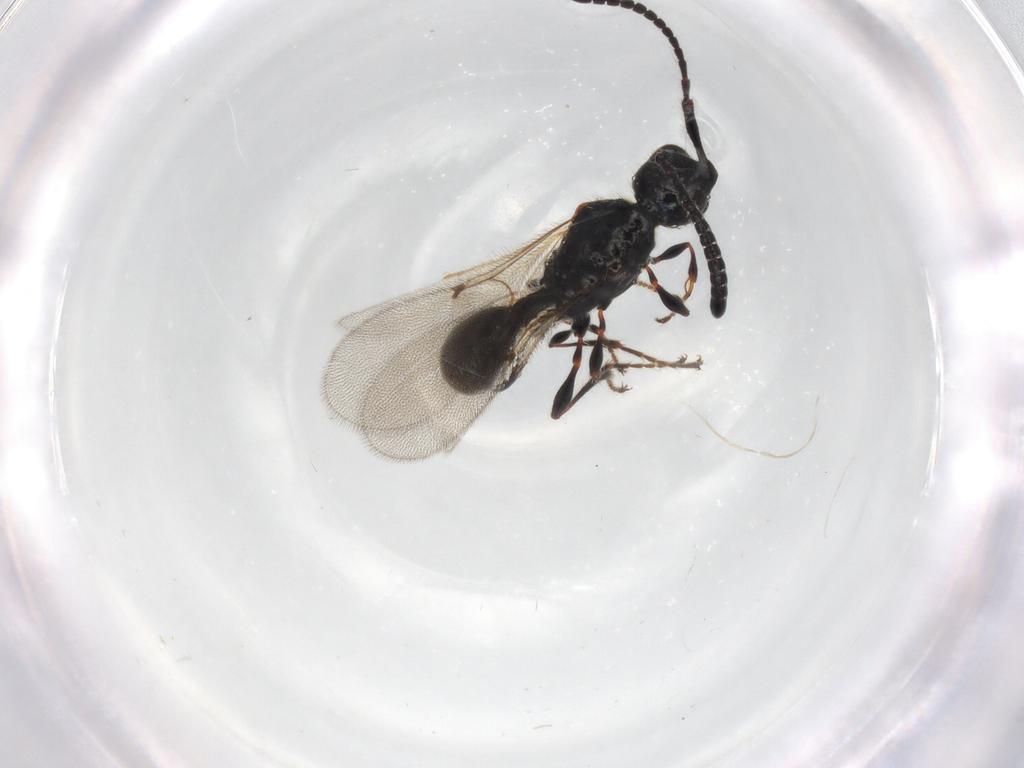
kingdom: Animalia
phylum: Arthropoda
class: Insecta
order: Hymenoptera
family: Diapriidae
